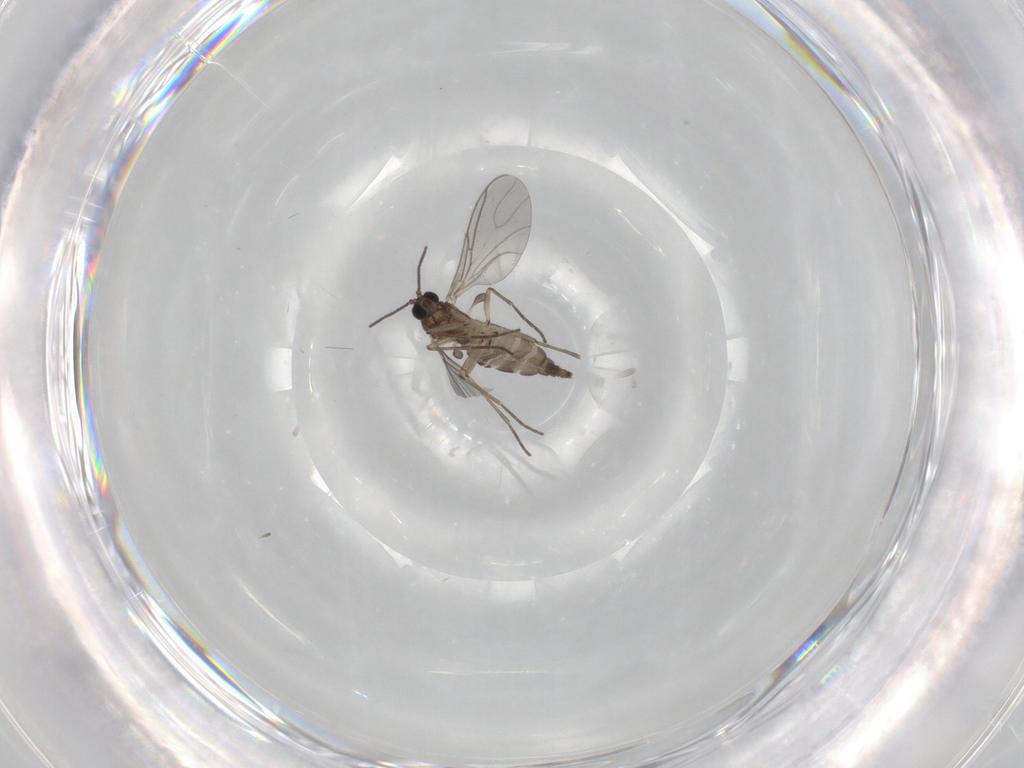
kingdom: Animalia
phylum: Arthropoda
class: Insecta
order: Diptera
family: Sciaridae
